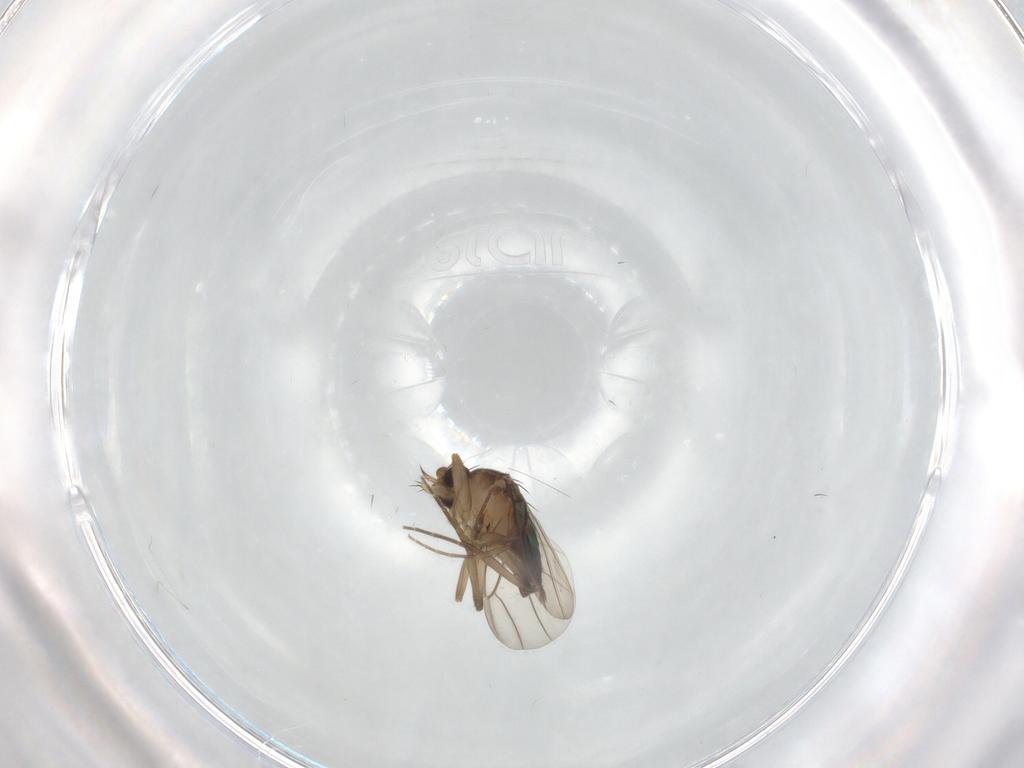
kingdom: Animalia
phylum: Arthropoda
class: Insecta
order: Diptera
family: Phoridae
